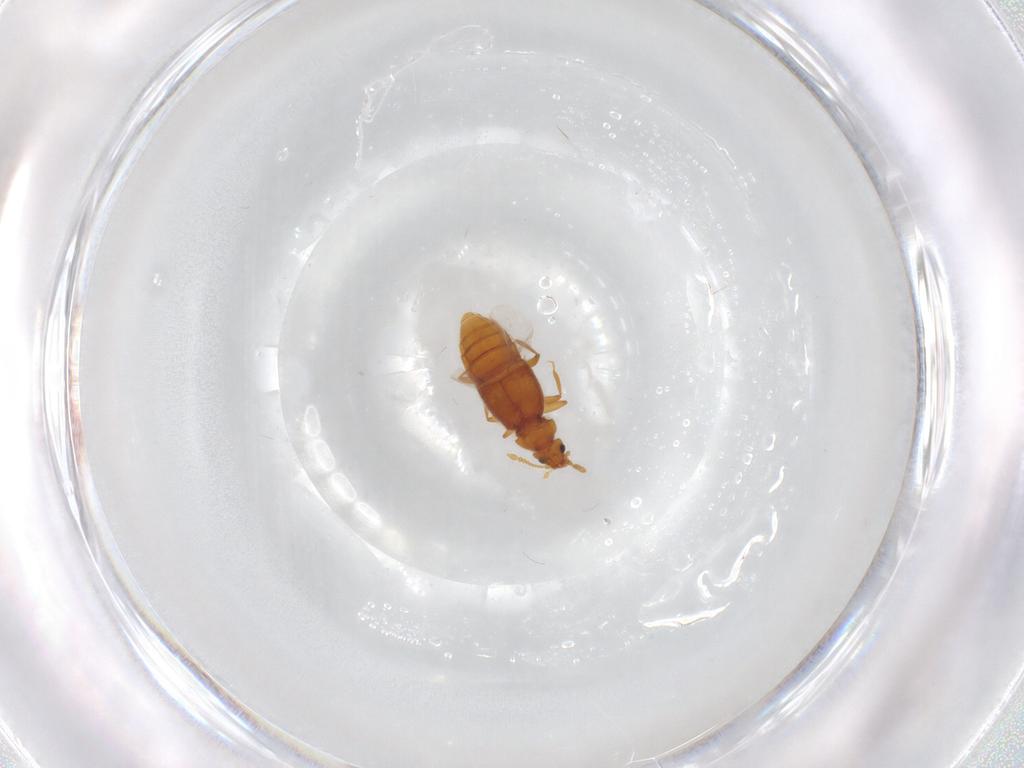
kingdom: Animalia
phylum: Arthropoda
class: Insecta
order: Coleoptera
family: Staphylinidae
